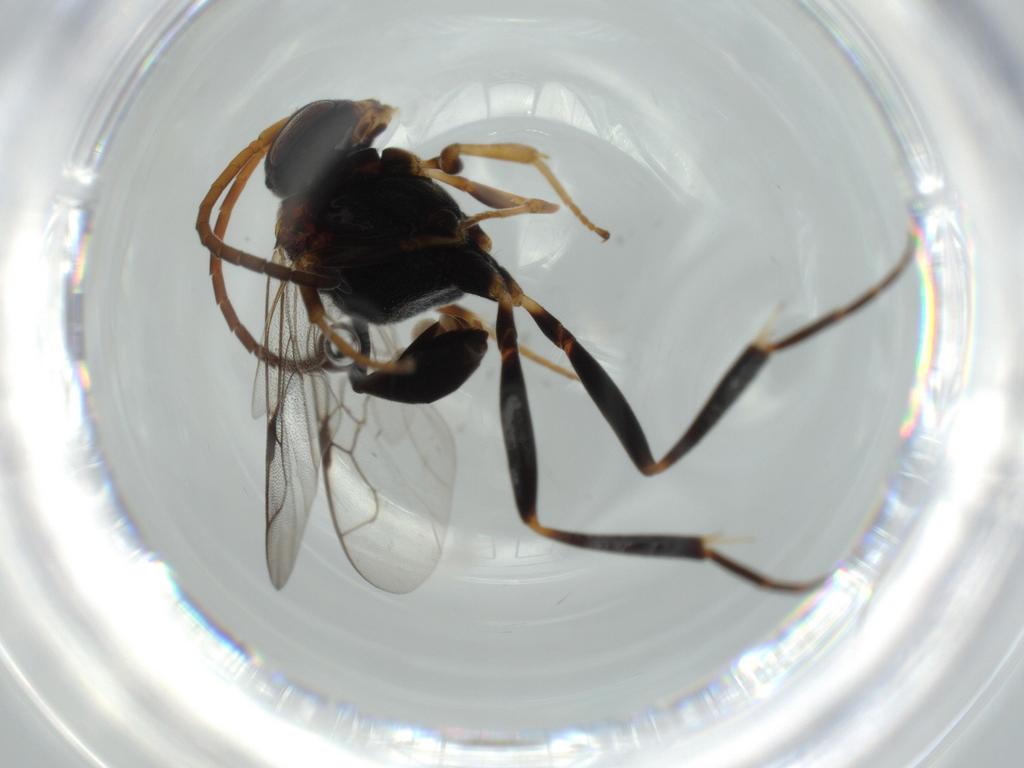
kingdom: Animalia
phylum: Arthropoda
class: Insecta
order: Hymenoptera
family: Evaniidae
